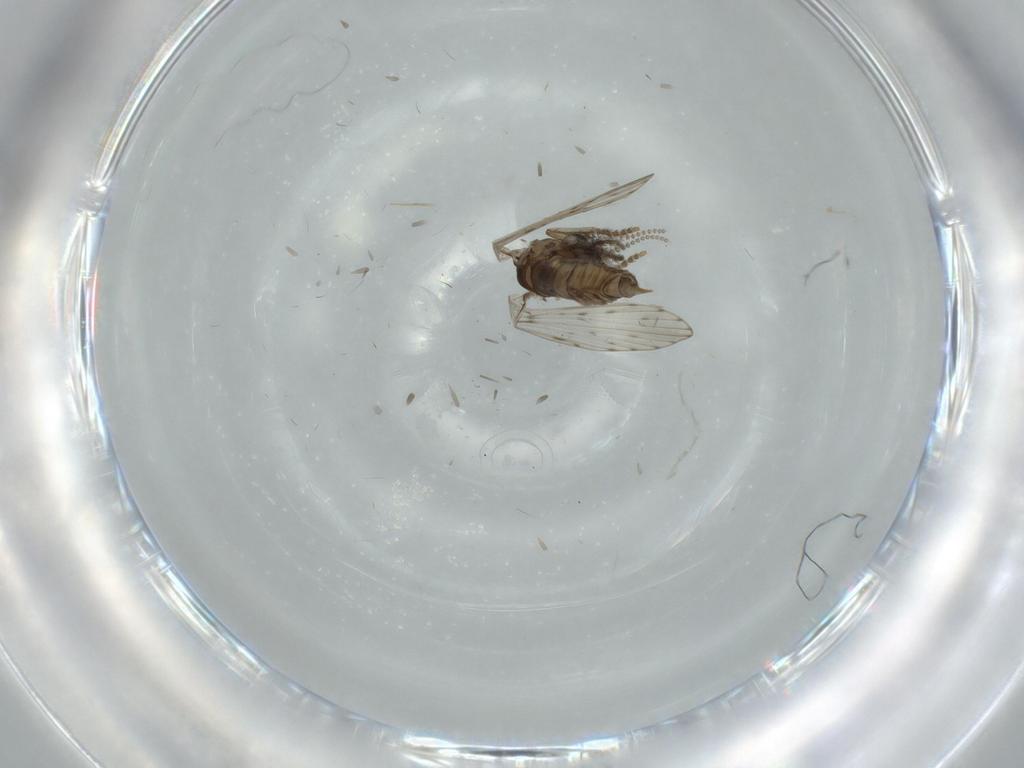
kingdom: Animalia
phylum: Arthropoda
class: Insecta
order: Diptera
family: Psychodidae
